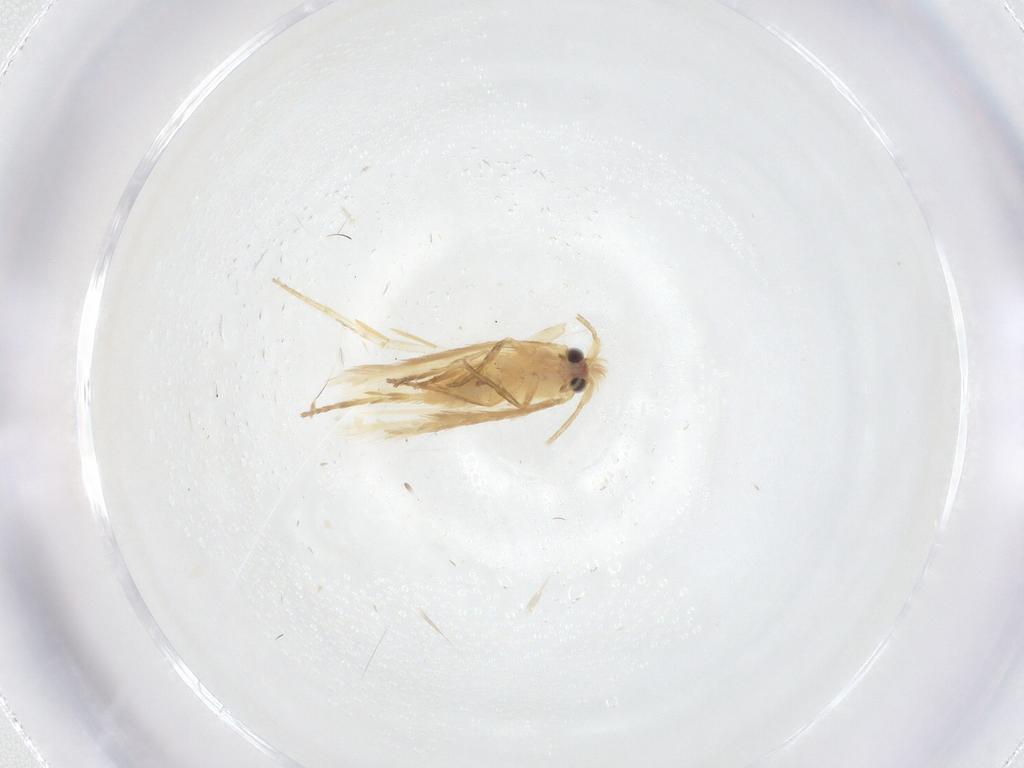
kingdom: Animalia
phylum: Arthropoda
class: Insecta
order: Lepidoptera
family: Nepticulidae
